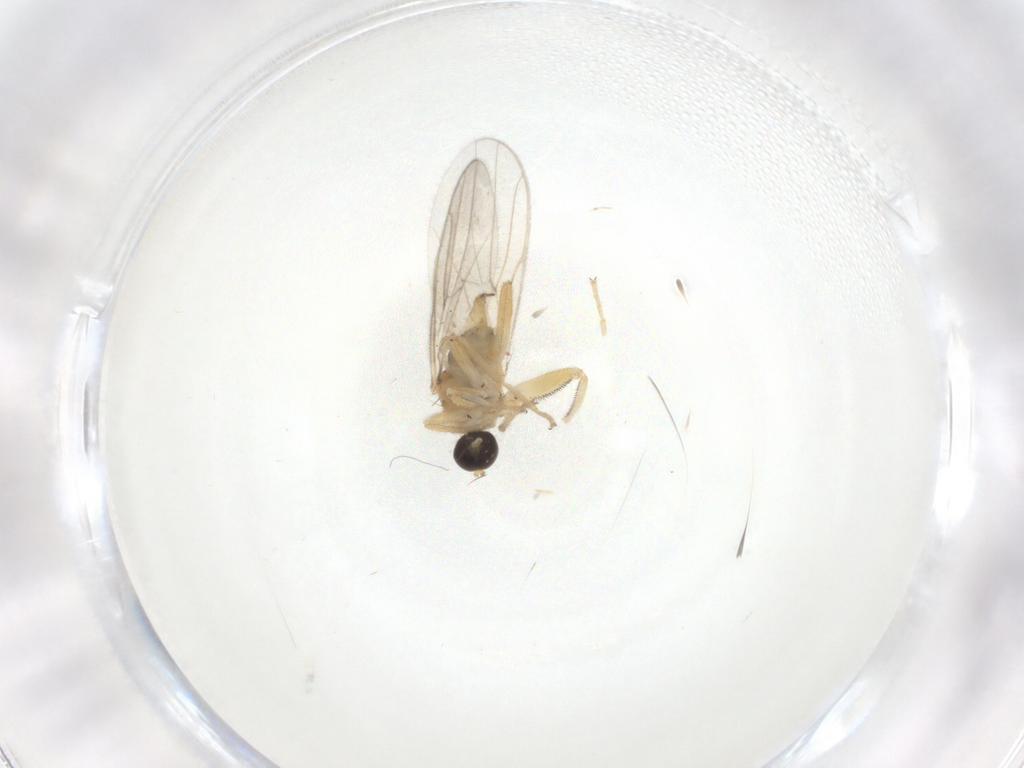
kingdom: Animalia
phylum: Arthropoda
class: Insecta
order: Diptera
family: Hybotidae
